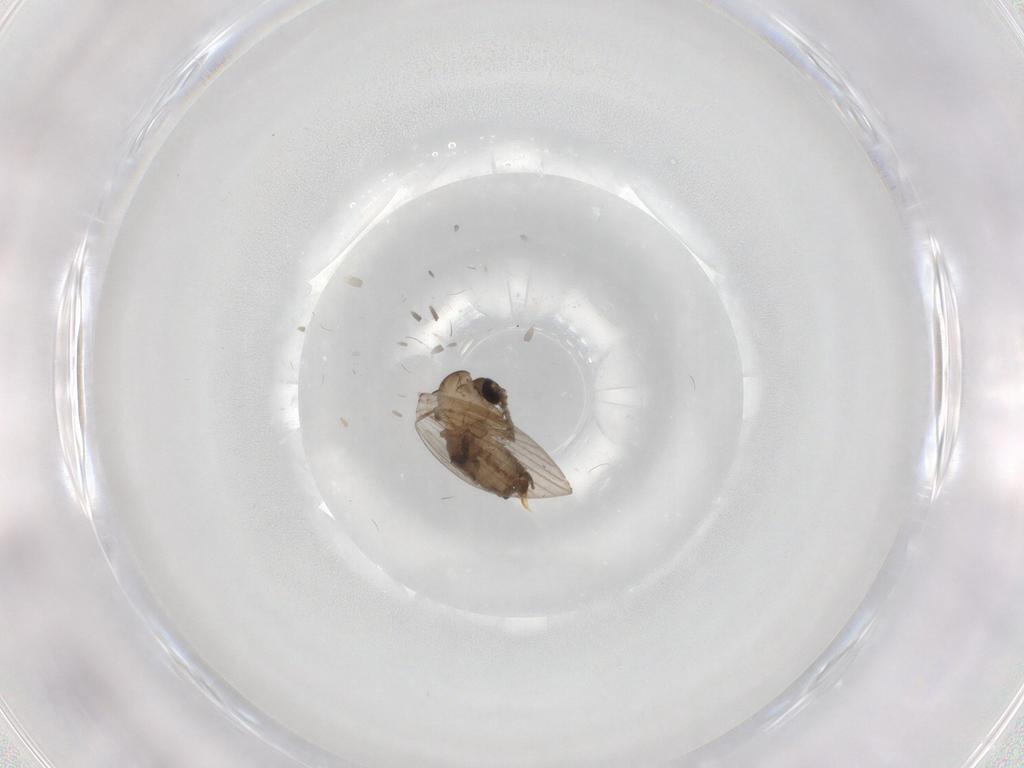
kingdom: Animalia
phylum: Arthropoda
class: Insecta
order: Diptera
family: Psychodidae
